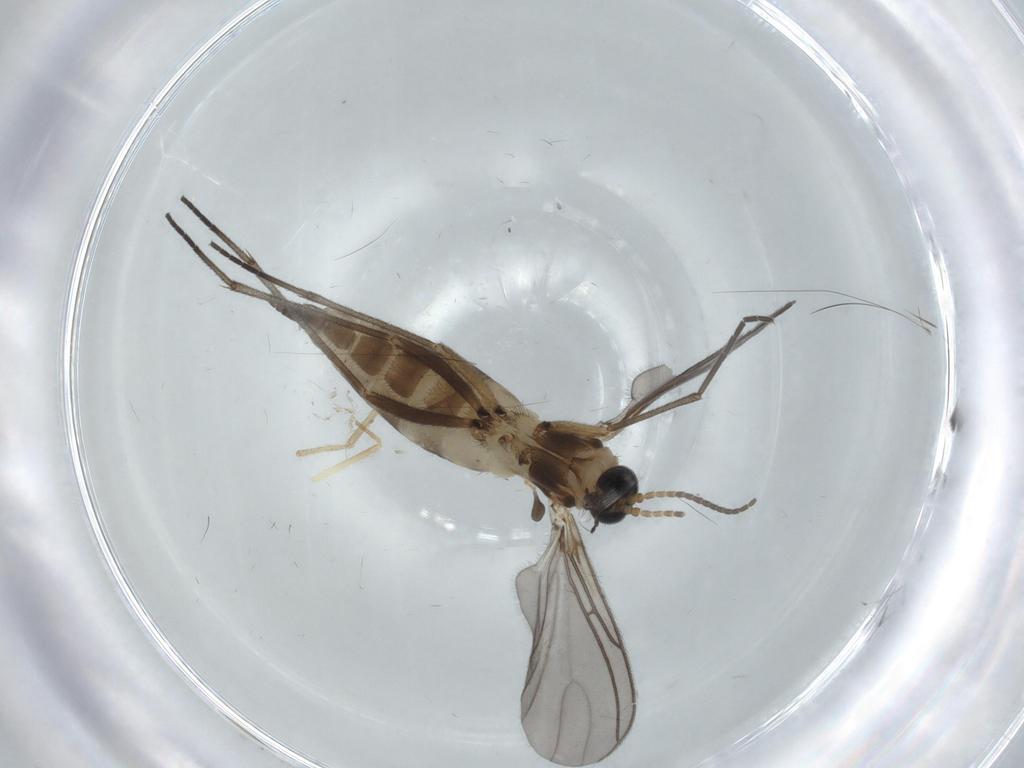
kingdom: Animalia
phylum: Arthropoda
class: Insecta
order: Diptera
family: Sciaridae
